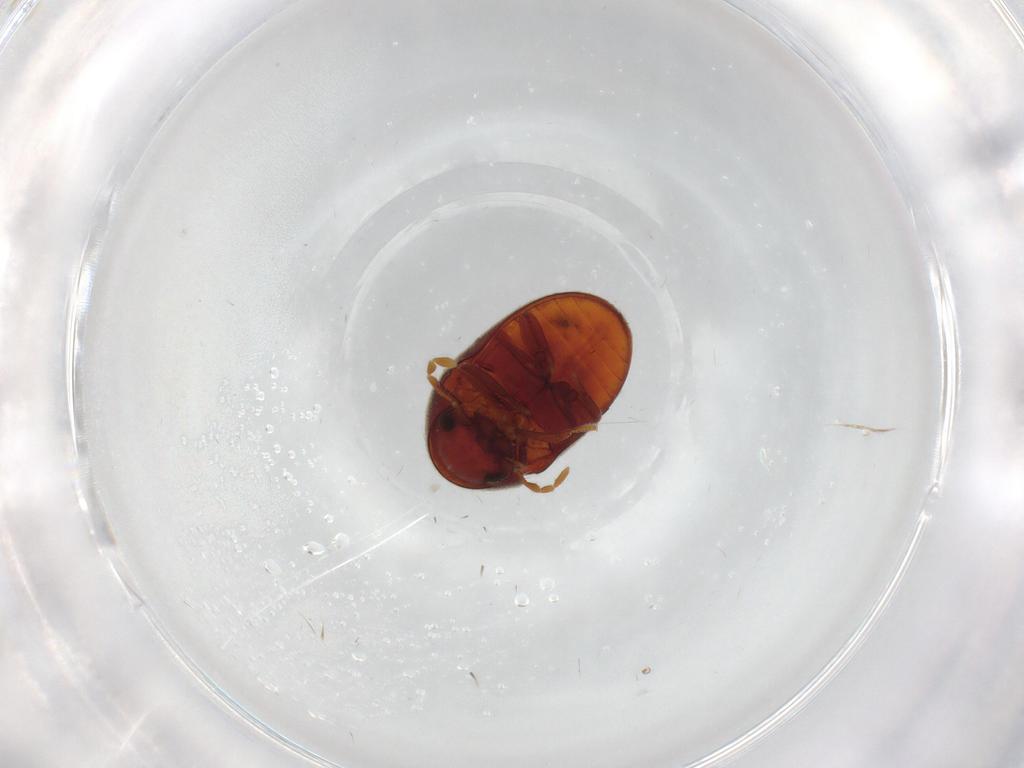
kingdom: Animalia
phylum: Arthropoda
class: Insecta
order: Coleoptera
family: Ptinidae
